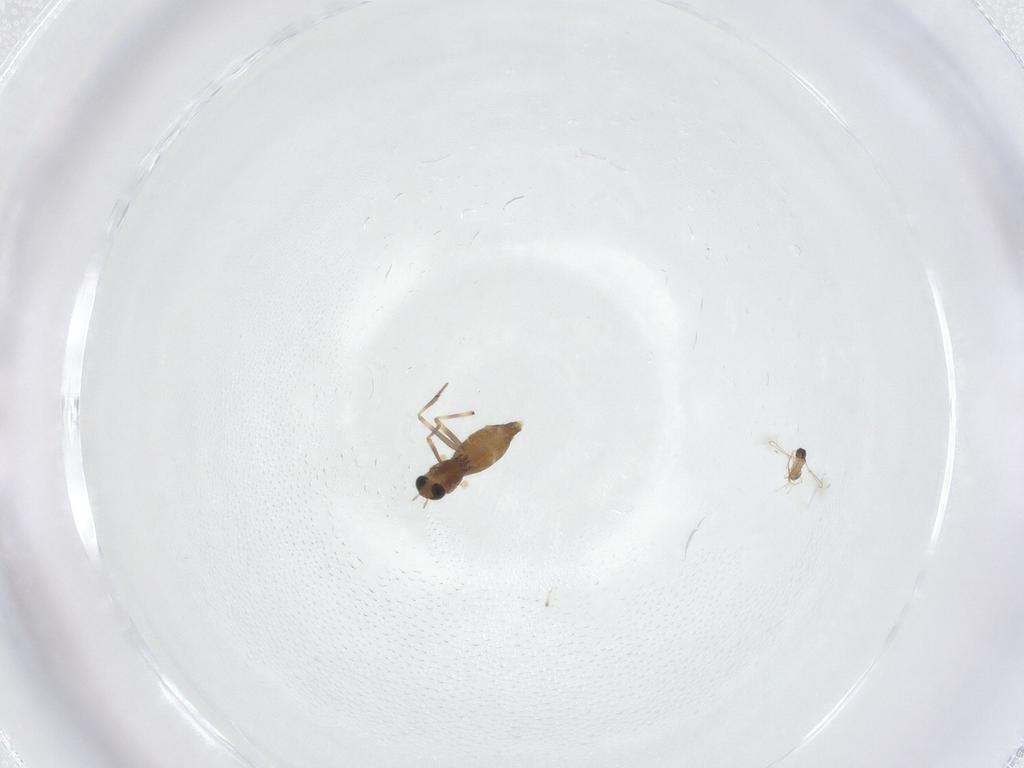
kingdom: Animalia
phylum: Arthropoda
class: Insecta
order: Diptera
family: Chironomidae
